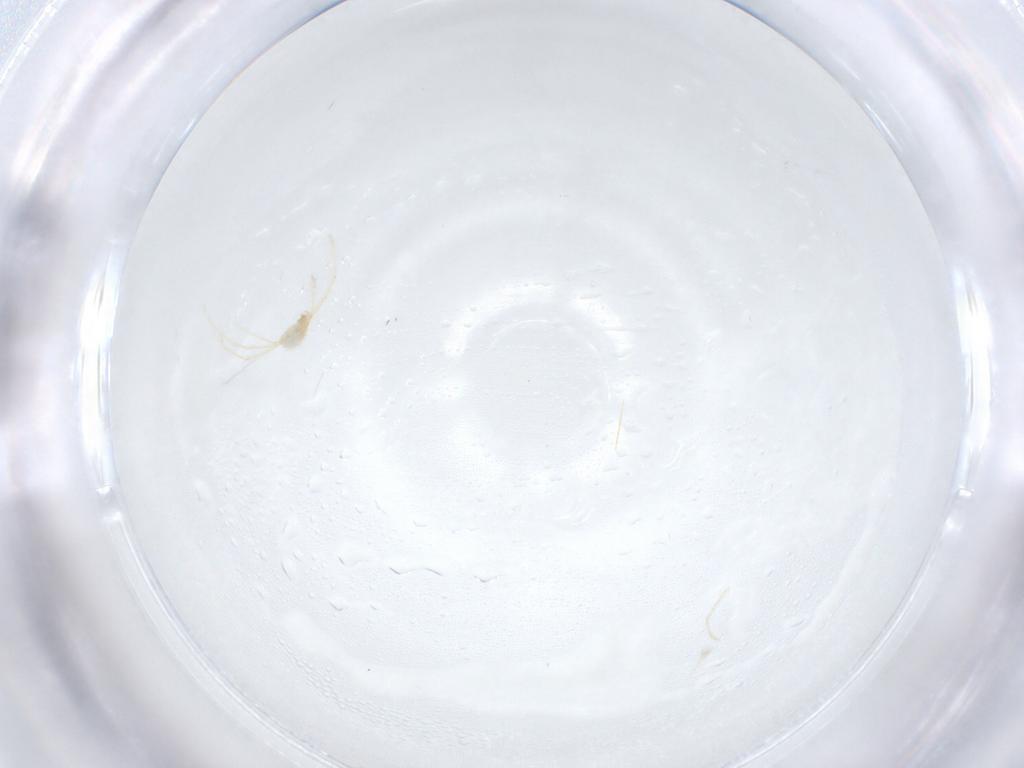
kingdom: Animalia
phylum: Arthropoda
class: Arachnida
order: Trombidiformes
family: Erythraeidae
